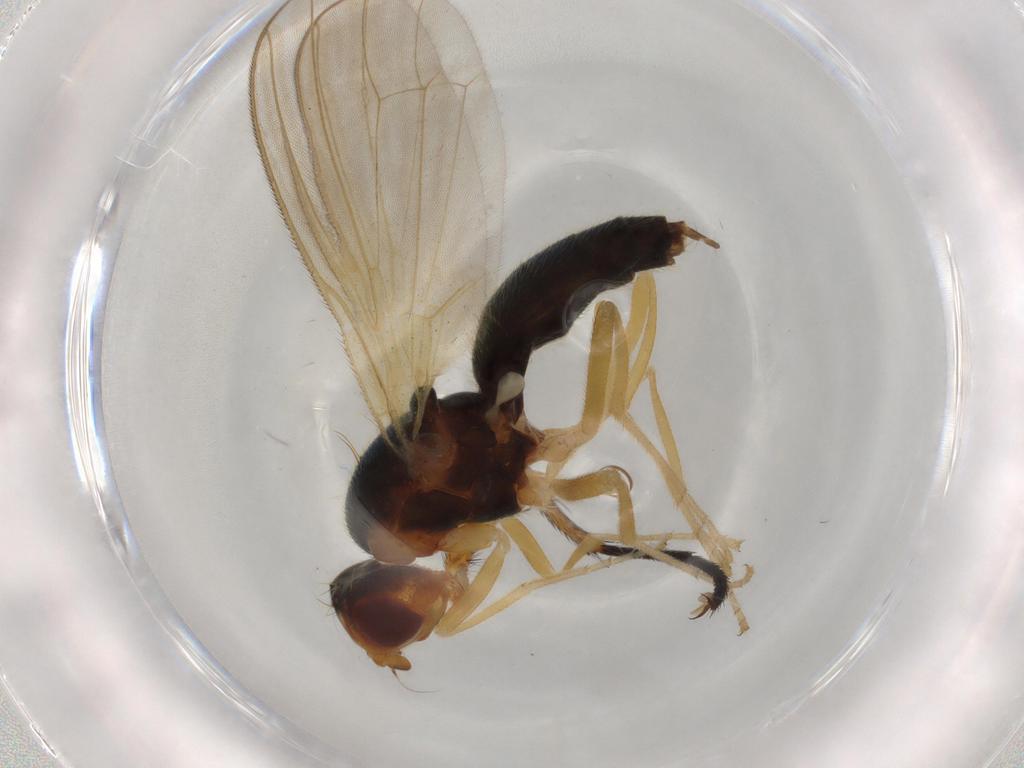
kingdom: Animalia
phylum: Arthropoda
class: Insecta
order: Diptera
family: Anthomyiidae
